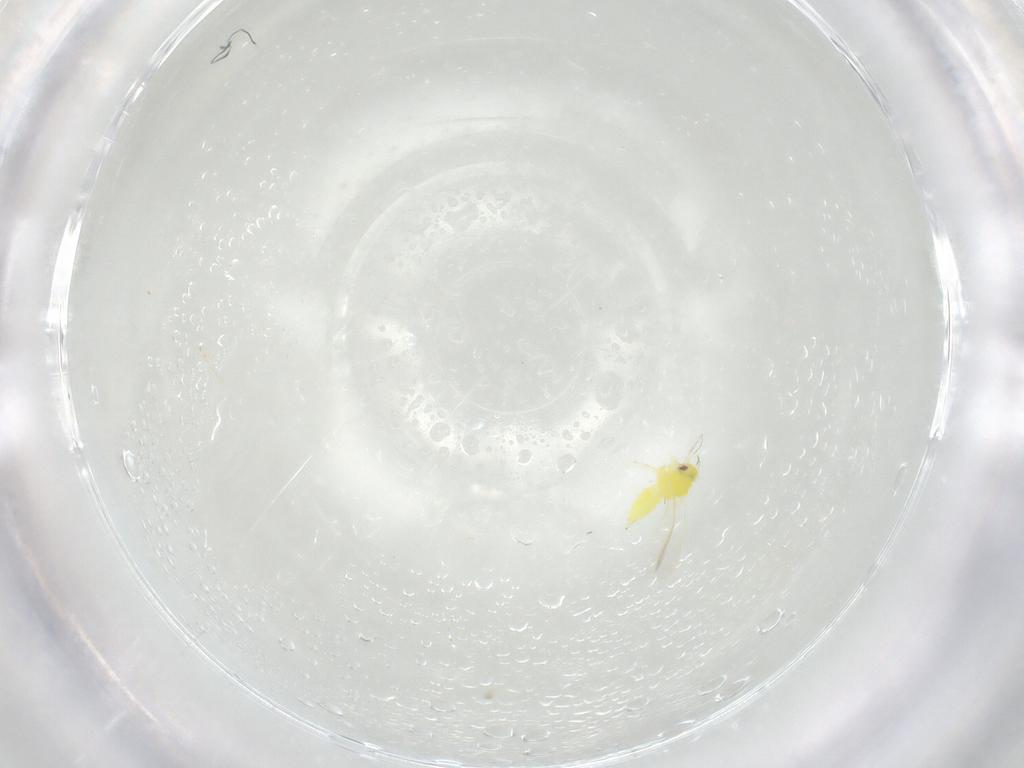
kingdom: Animalia
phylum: Arthropoda
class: Insecta
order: Hemiptera
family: Aleyrodidae
